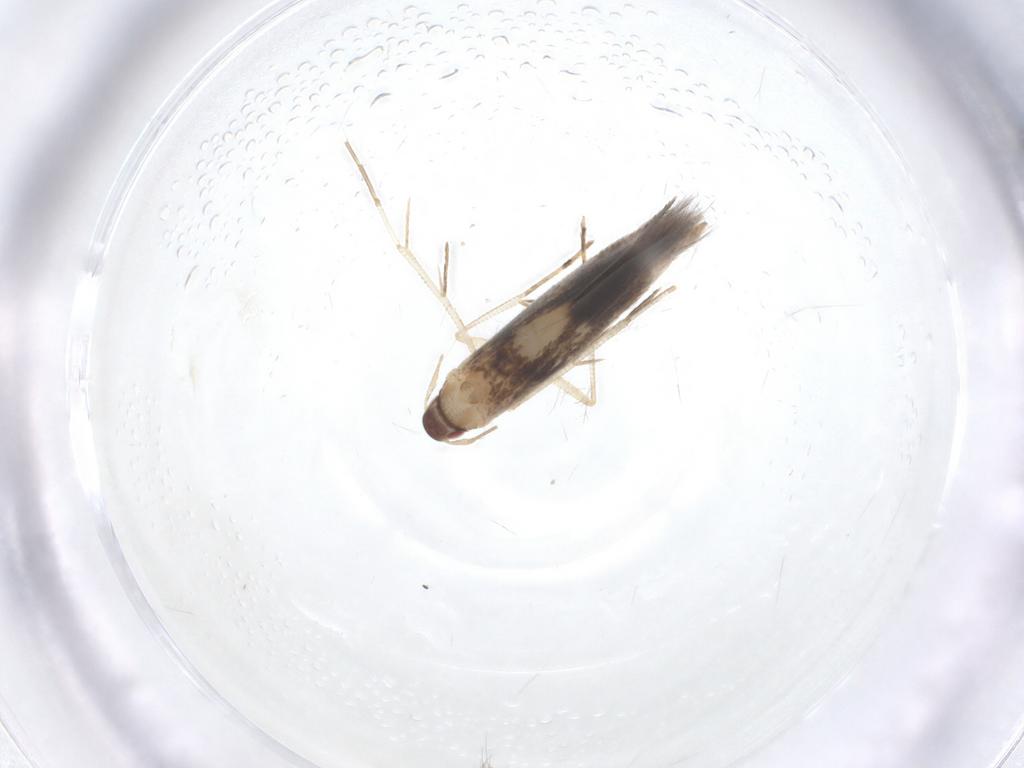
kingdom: Animalia
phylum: Arthropoda
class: Insecta
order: Lepidoptera
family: Cosmopterigidae
